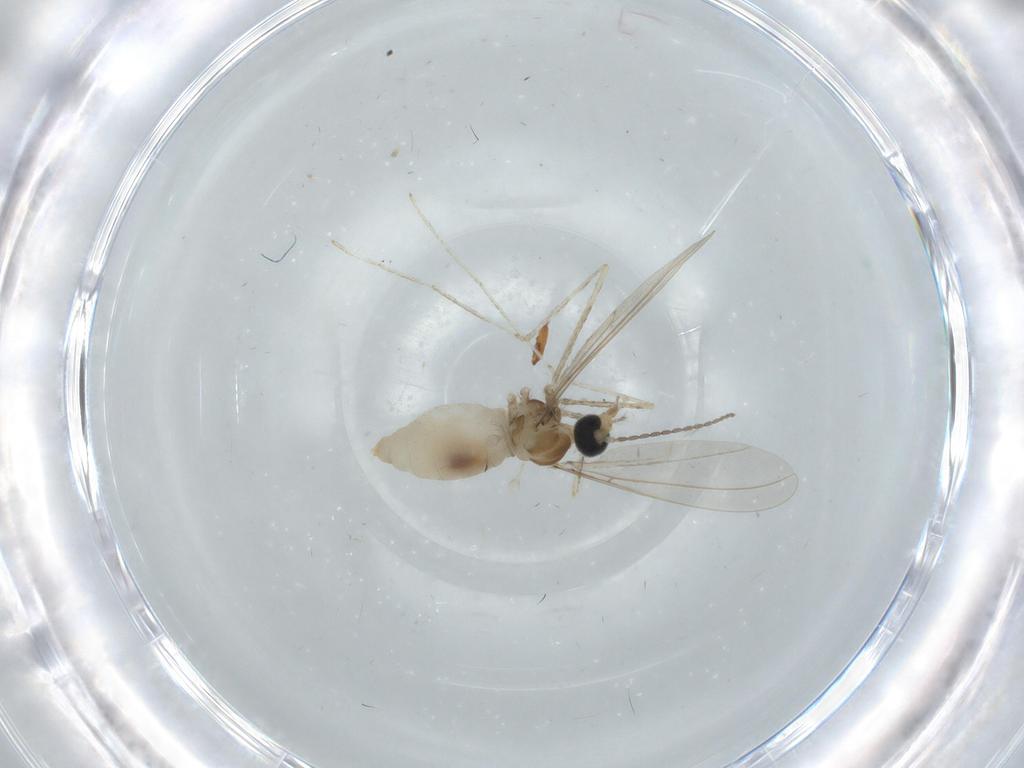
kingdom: Animalia
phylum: Arthropoda
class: Insecta
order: Diptera
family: Cecidomyiidae
